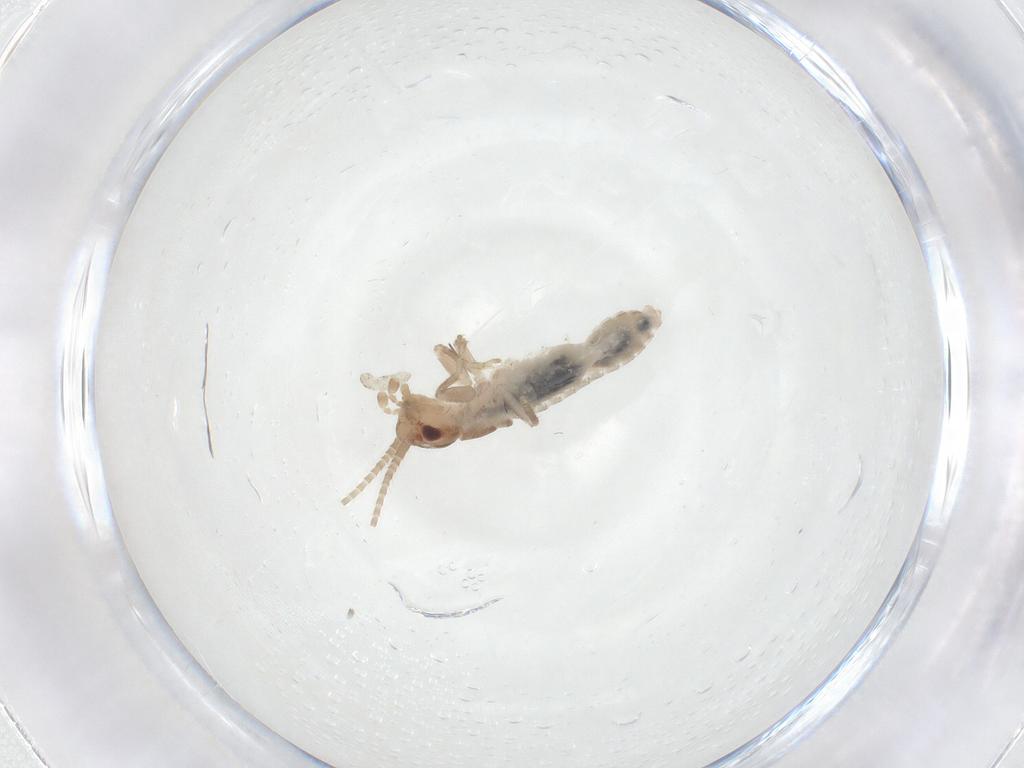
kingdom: Animalia
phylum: Arthropoda
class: Insecta
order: Orthoptera
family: Mogoplistidae
